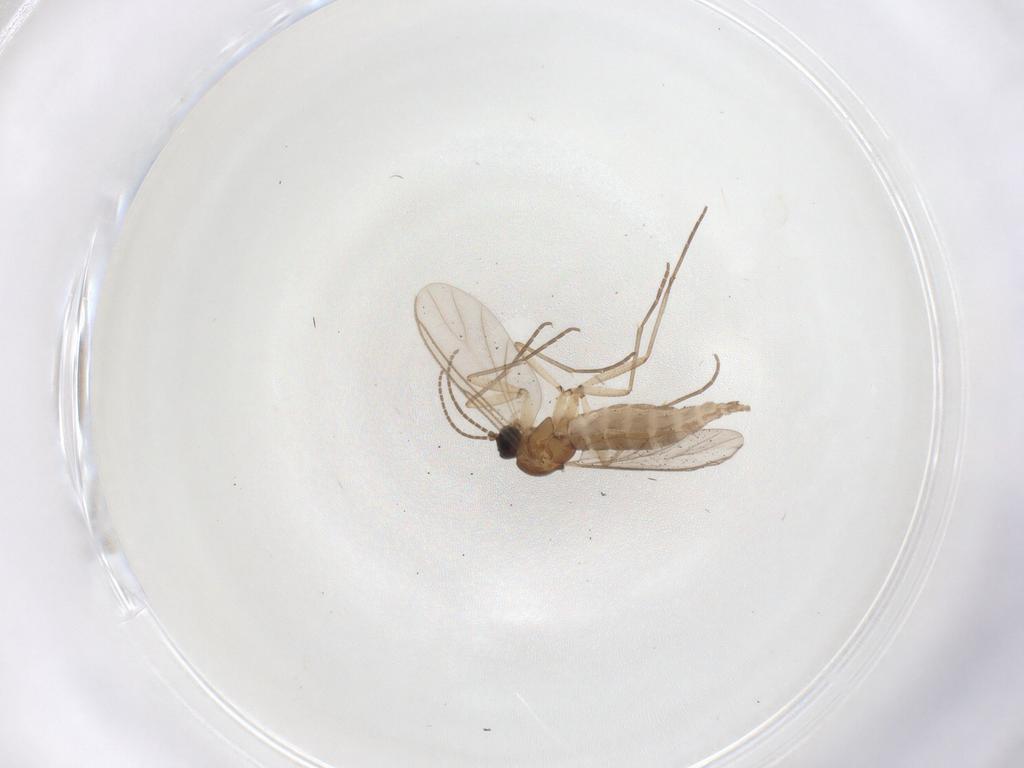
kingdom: Animalia
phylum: Arthropoda
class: Insecta
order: Diptera
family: Sciaridae
